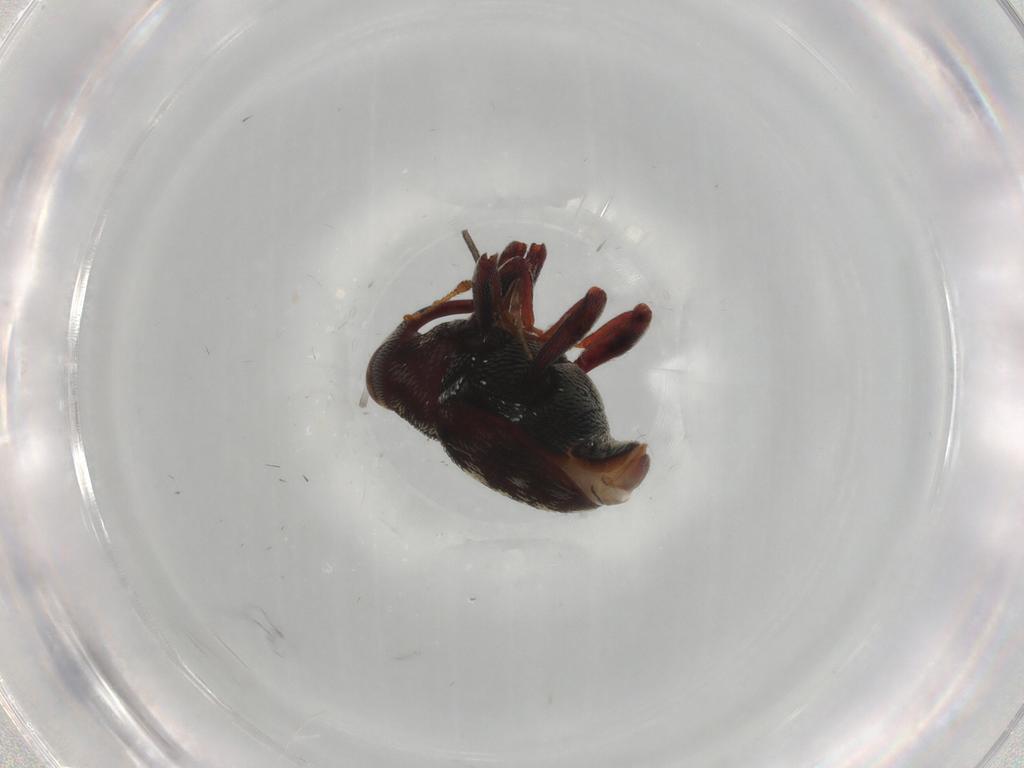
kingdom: Animalia
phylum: Arthropoda
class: Insecta
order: Coleoptera
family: Curculionidae
